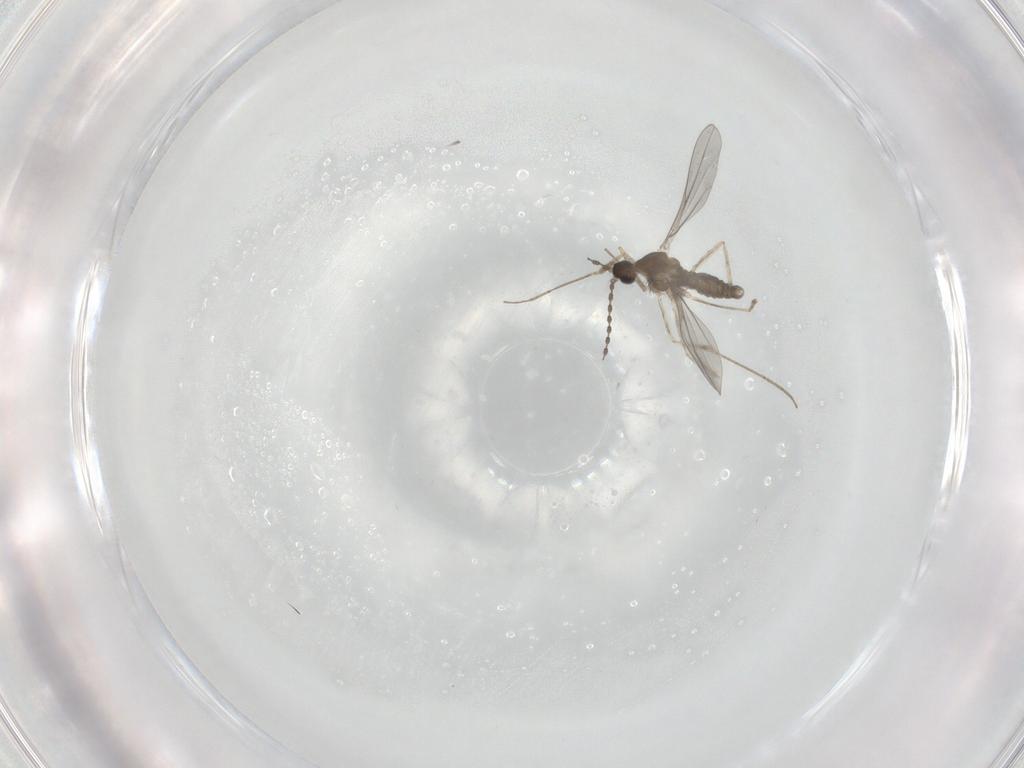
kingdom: Animalia
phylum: Arthropoda
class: Insecta
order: Diptera
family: Cecidomyiidae
